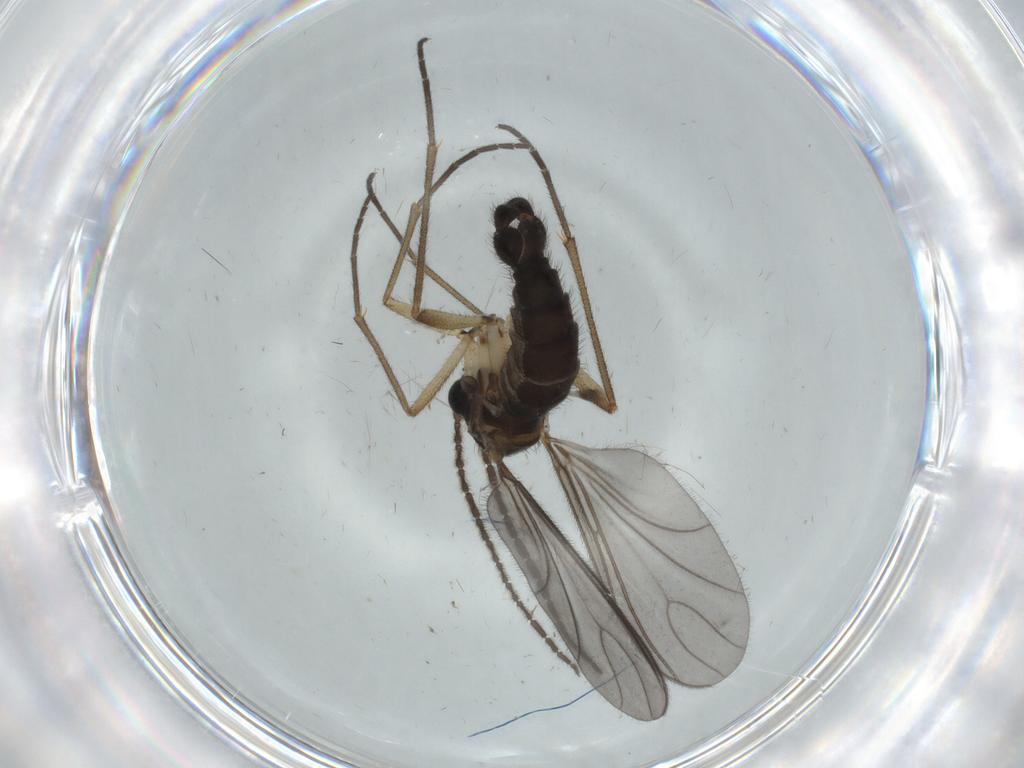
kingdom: Animalia
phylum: Arthropoda
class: Insecta
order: Diptera
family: Sciaridae
